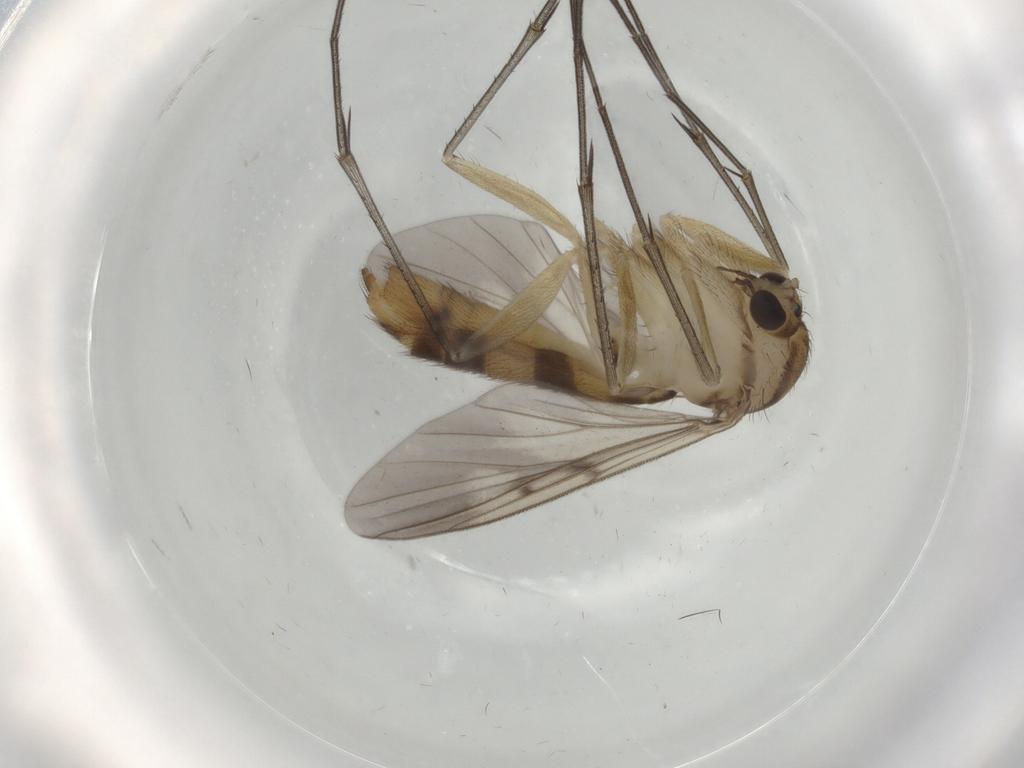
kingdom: Animalia
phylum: Arthropoda
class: Insecta
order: Diptera
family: Mycetophilidae
